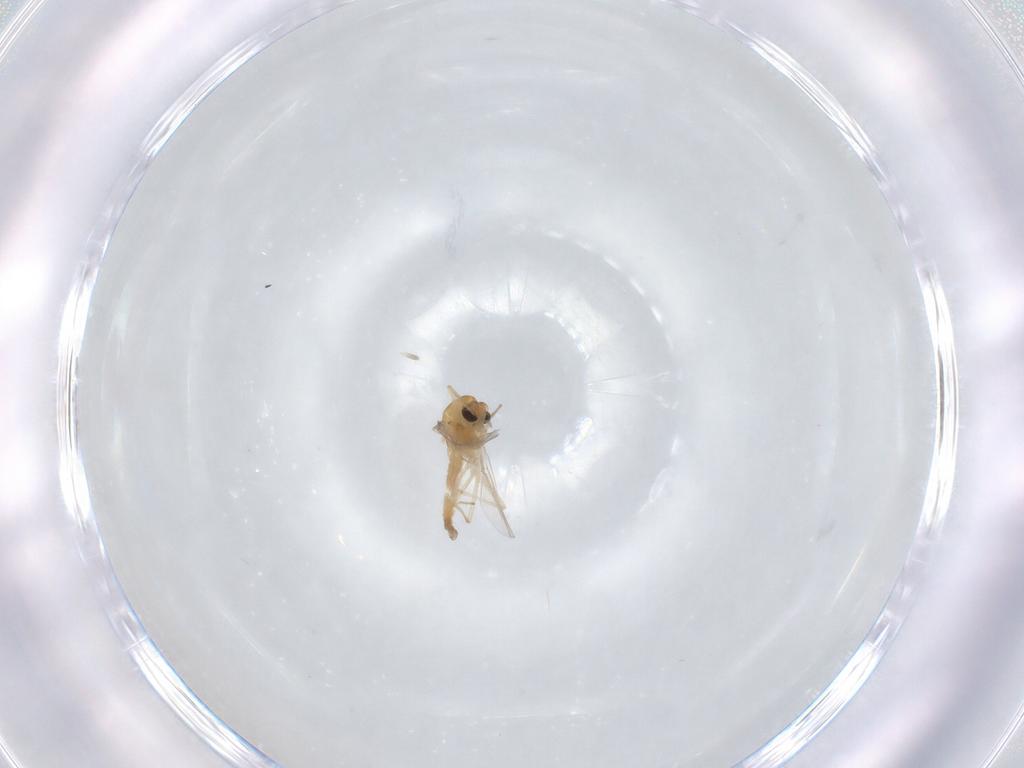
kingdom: Animalia
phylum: Arthropoda
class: Insecta
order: Diptera
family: Chironomidae
